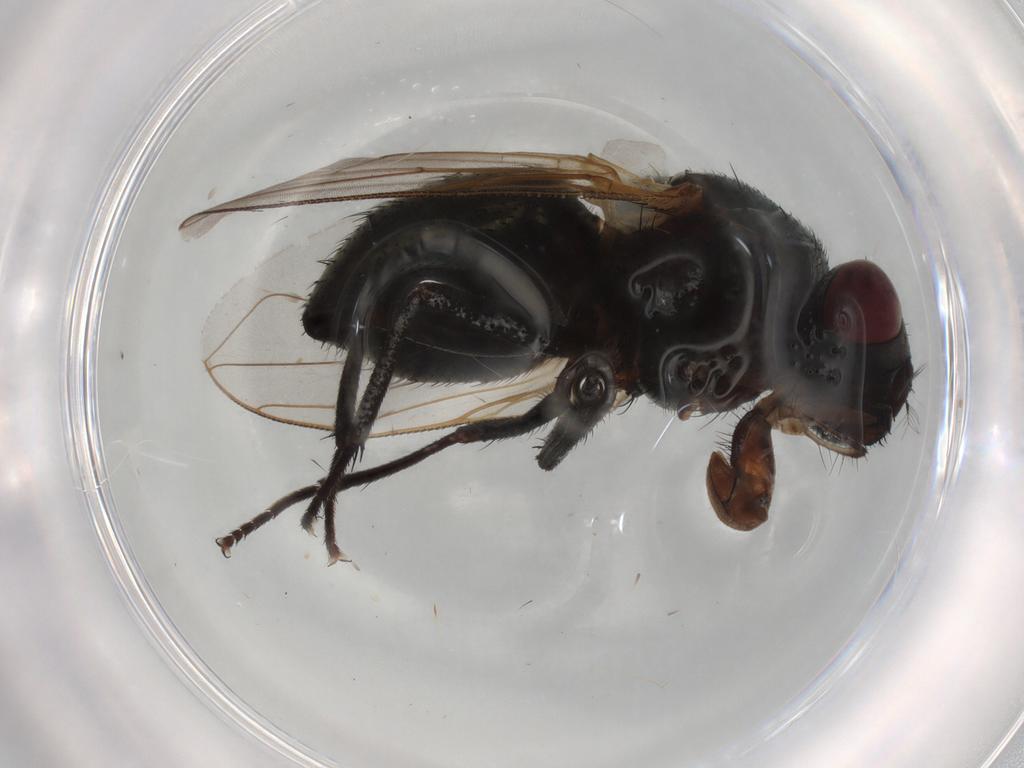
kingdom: Animalia
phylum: Arthropoda
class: Insecta
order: Diptera
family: Muscidae
